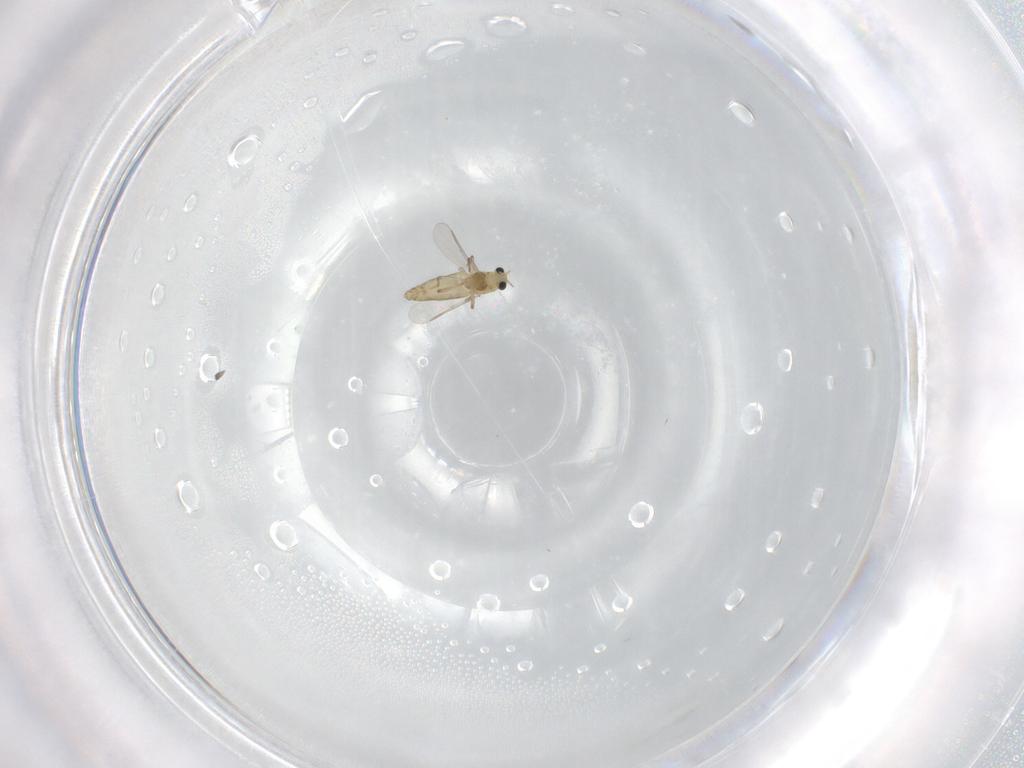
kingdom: Animalia
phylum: Arthropoda
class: Insecta
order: Diptera
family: Chironomidae
